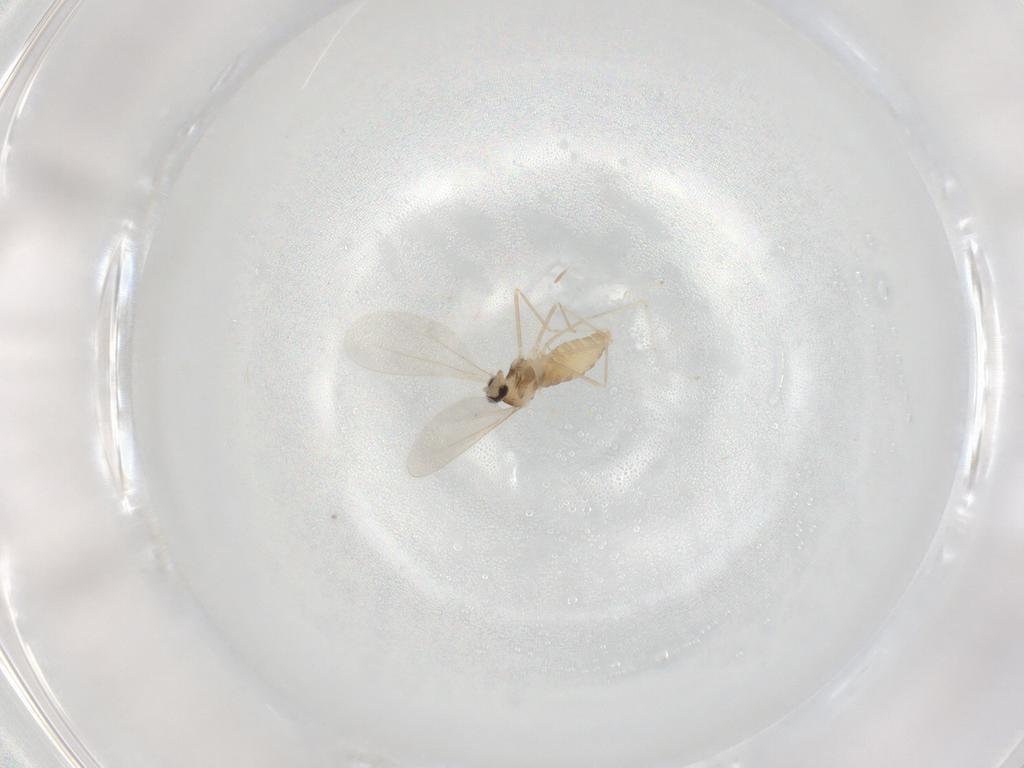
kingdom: Animalia
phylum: Arthropoda
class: Insecta
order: Diptera
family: Cecidomyiidae
